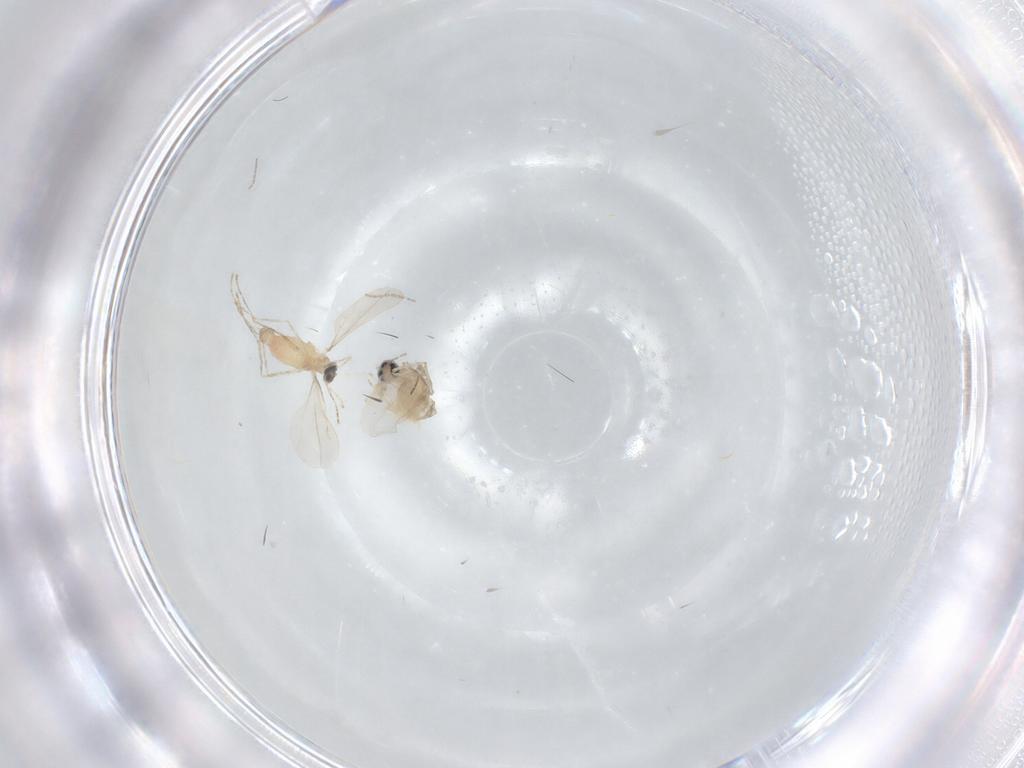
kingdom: Animalia
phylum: Arthropoda
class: Insecta
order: Diptera
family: Cecidomyiidae
